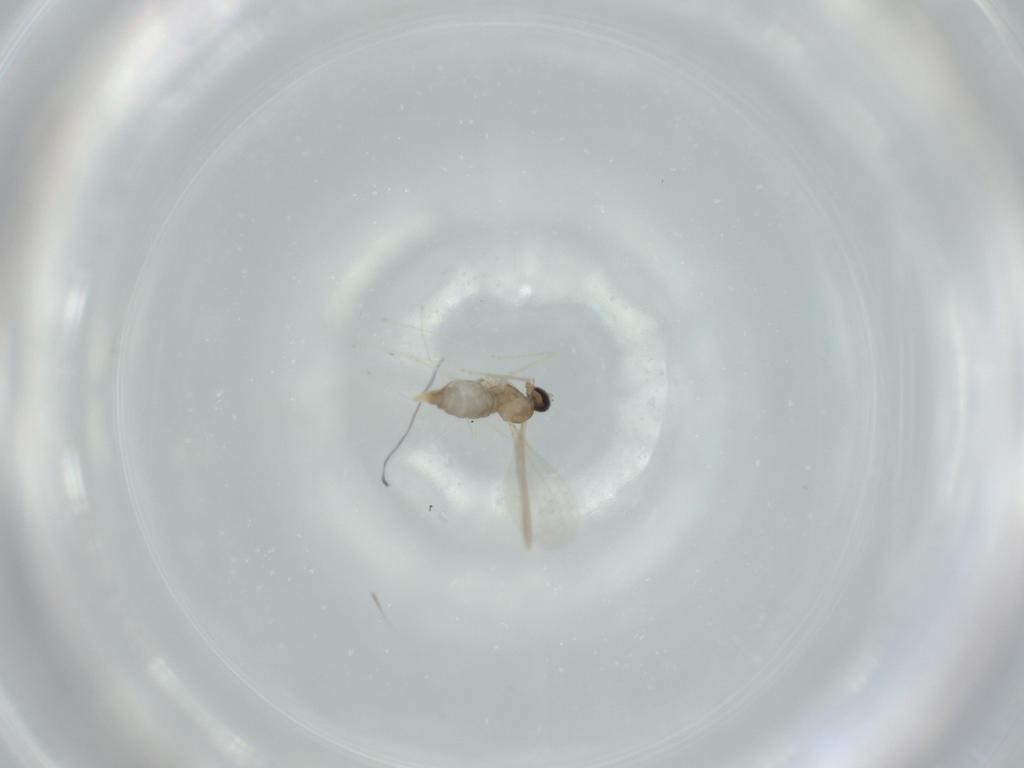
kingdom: Animalia
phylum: Arthropoda
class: Insecta
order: Diptera
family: Cecidomyiidae
